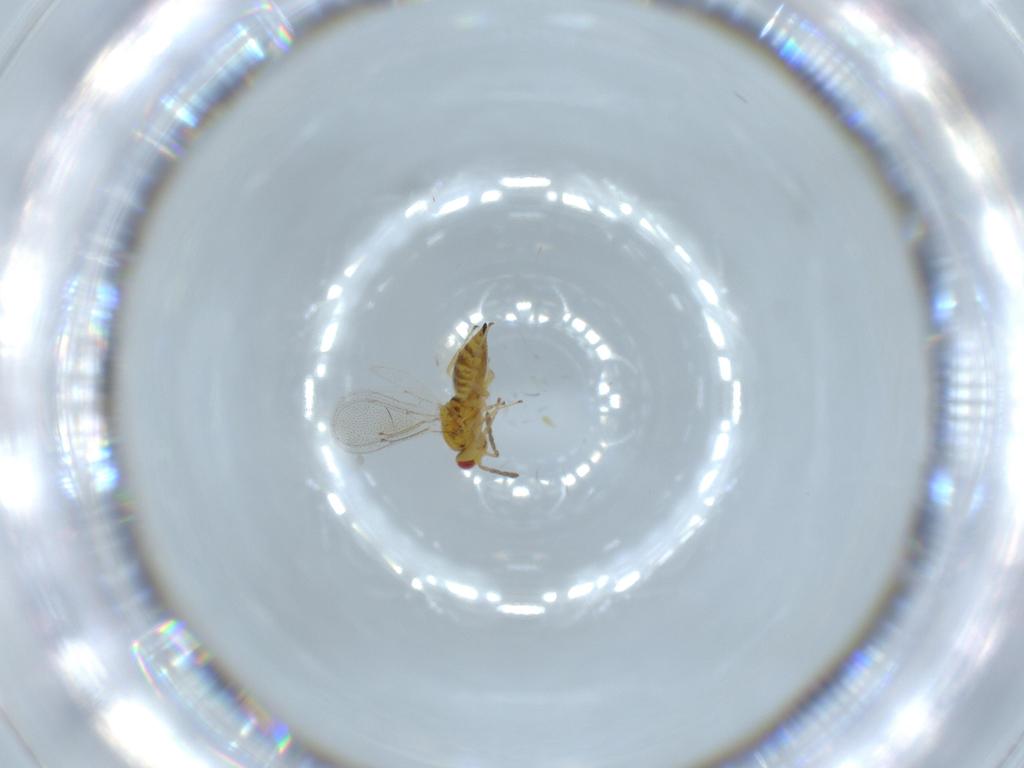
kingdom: Animalia
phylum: Arthropoda
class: Insecta
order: Hymenoptera
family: Eulophidae
